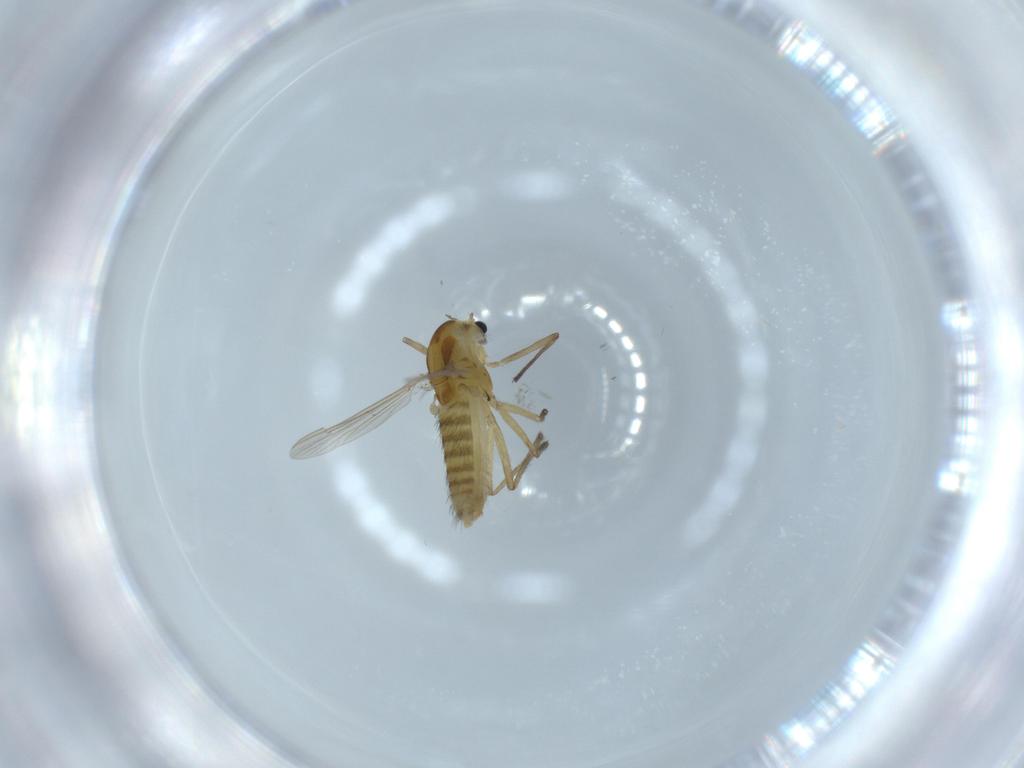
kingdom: Animalia
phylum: Arthropoda
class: Insecta
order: Diptera
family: Chironomidae
